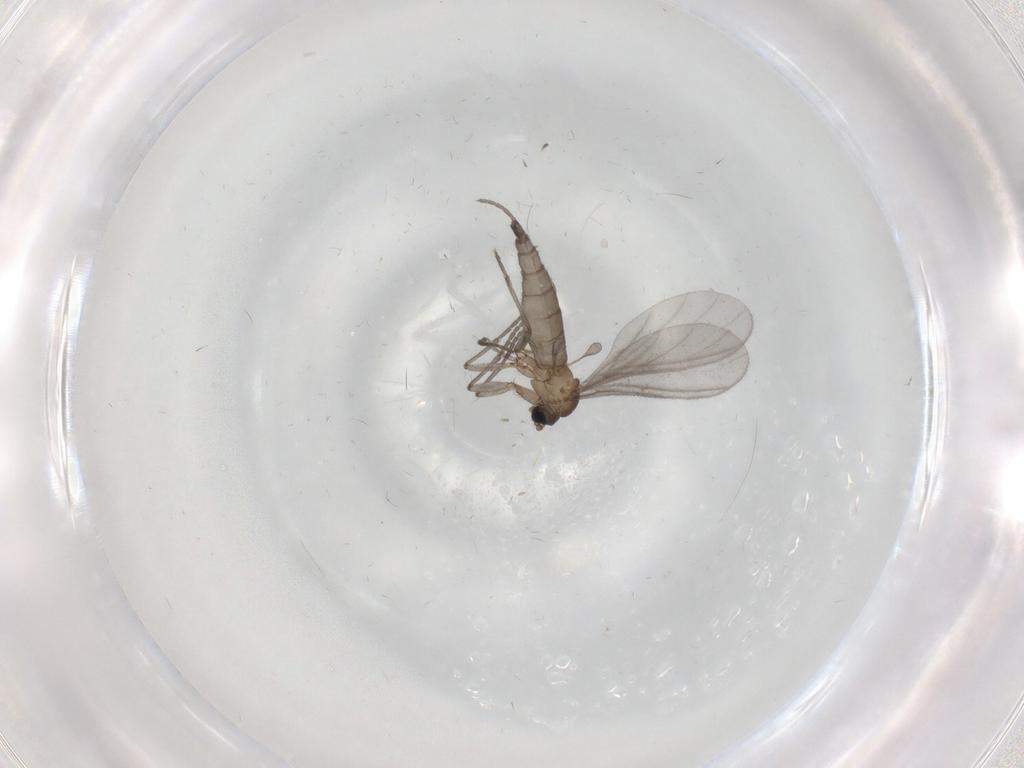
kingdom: Animalia
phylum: Arthropoda
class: Insecta
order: Diptera
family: Sciaridae
